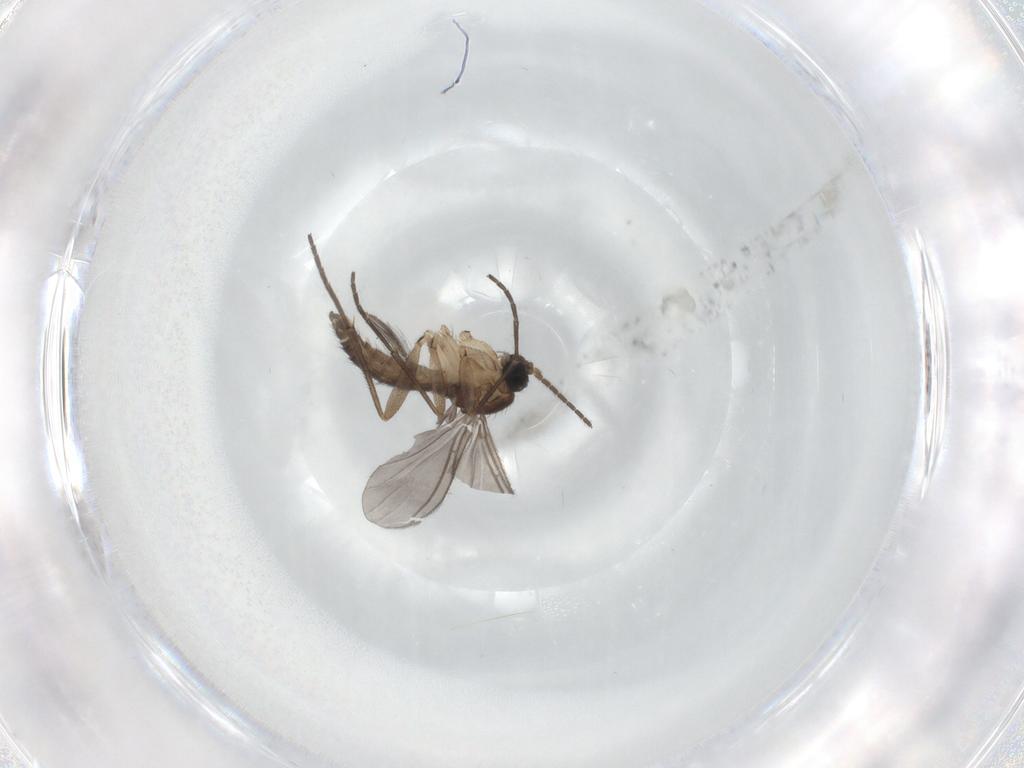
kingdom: Animalia
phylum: Arthropoda
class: Insecta
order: Diptera
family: Sciaridae
